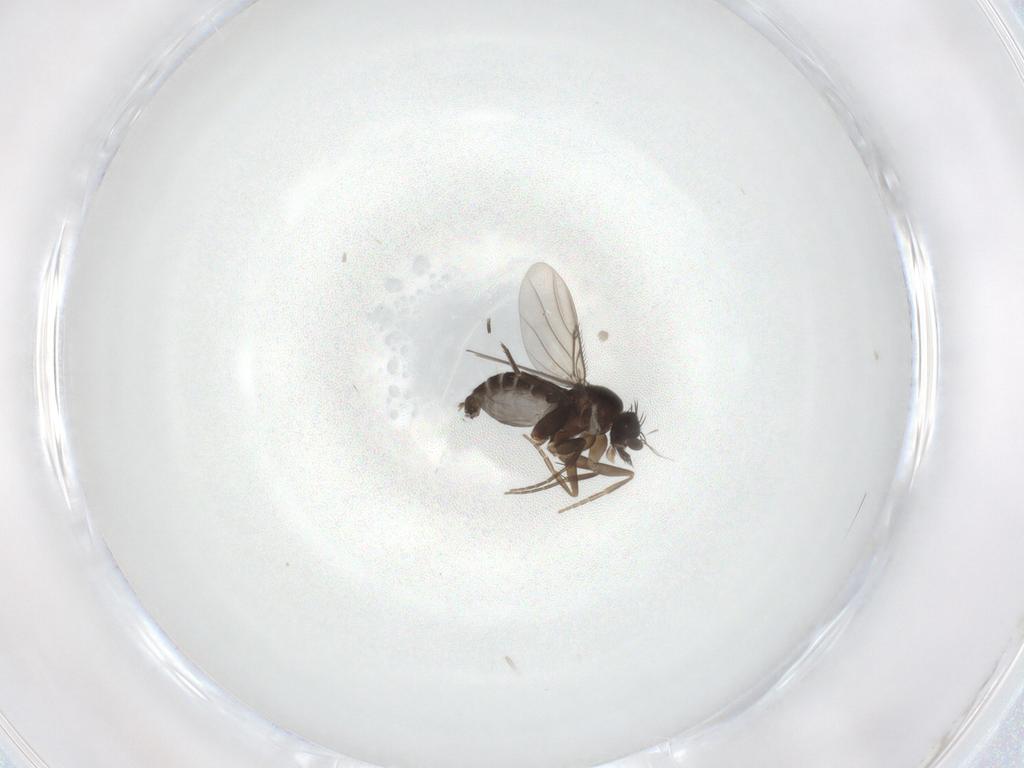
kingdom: Animalia
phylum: Arthropoda
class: Insecta
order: Diptera
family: Phoridae
